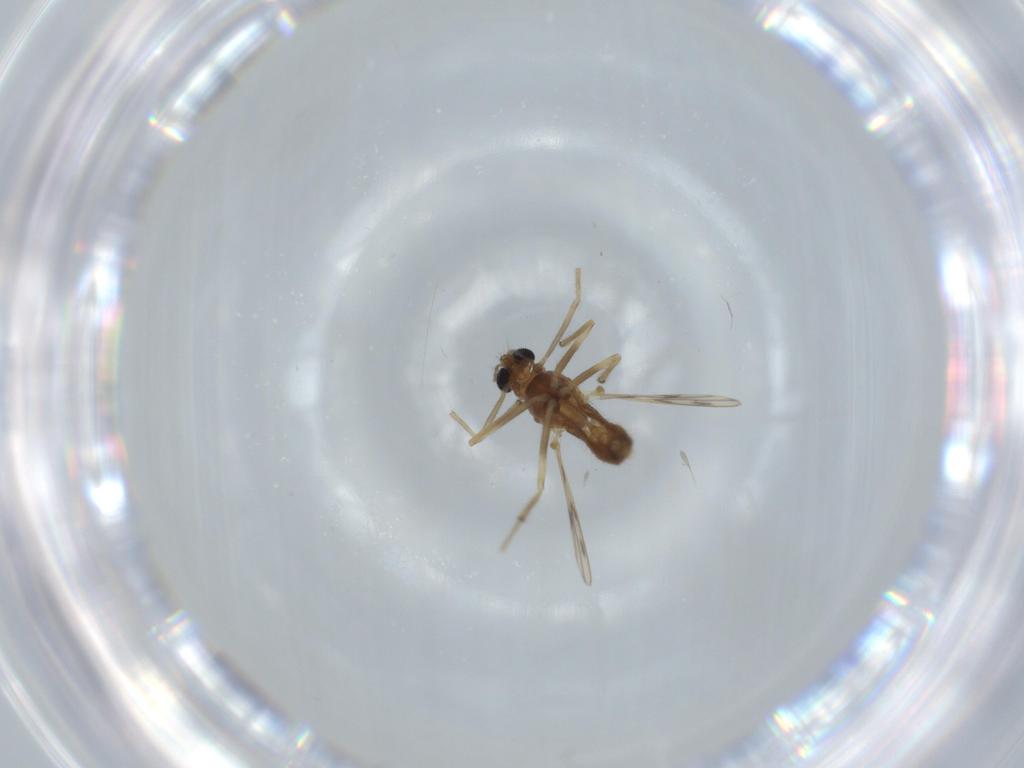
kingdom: Animalia
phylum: Arthropoda
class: Insecta
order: Diptera
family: Chironomidae
